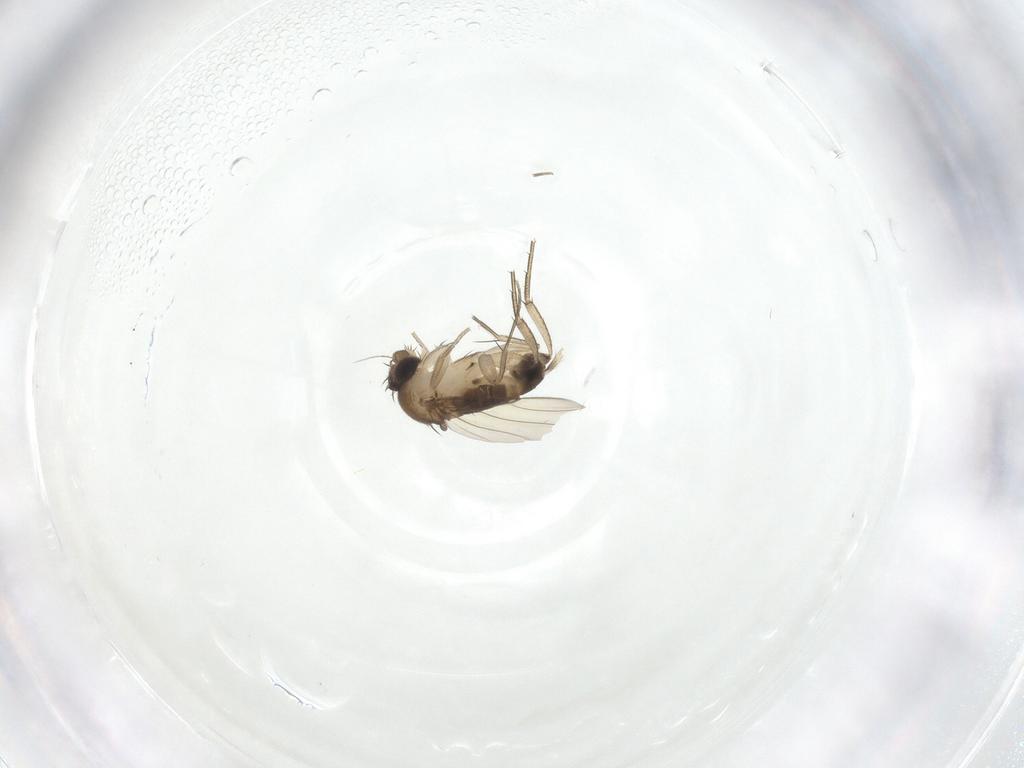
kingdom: Animalia
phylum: Arthropoda
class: Insecta
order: Diptera
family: Phoridae
